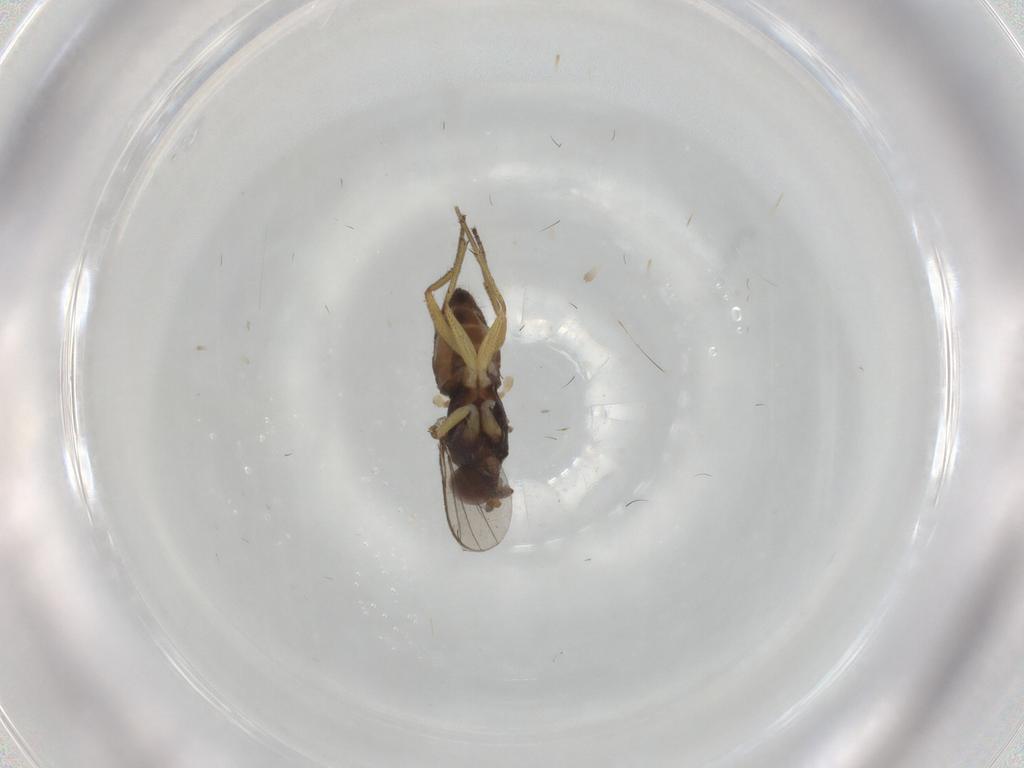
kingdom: Animalia
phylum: Arthropoda
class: Insecta
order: Diptera
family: Dolichopodidae
